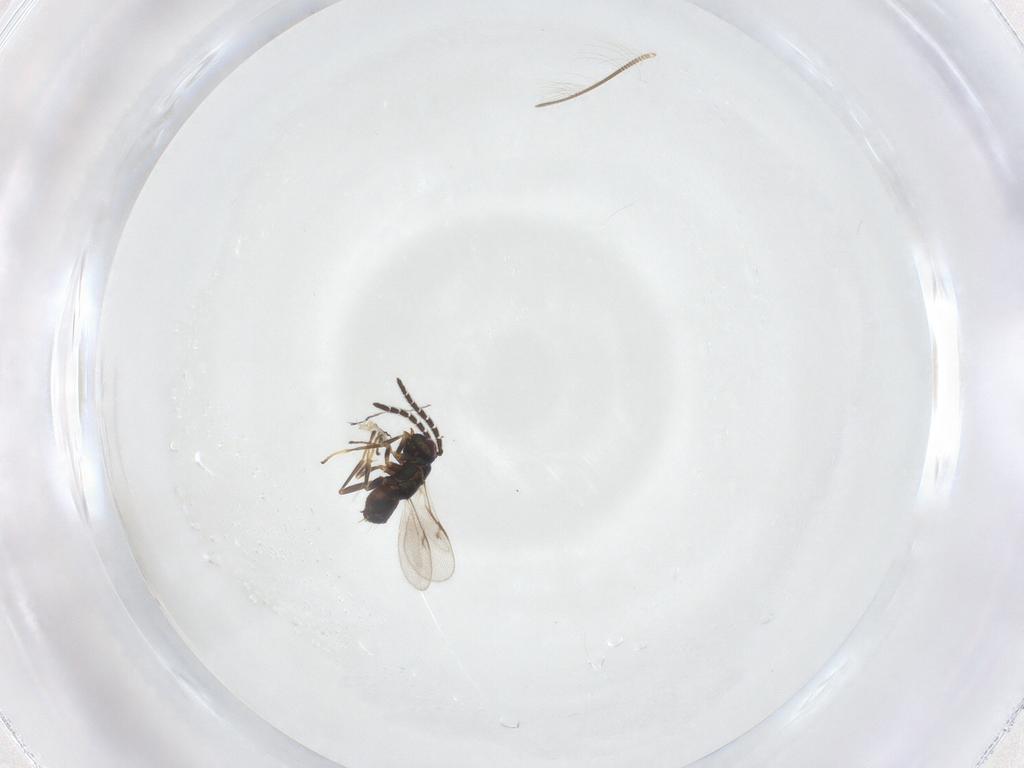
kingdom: Animalia
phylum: Arthropoda
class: Insecta
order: Hymenoptera
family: Encyrtidae
